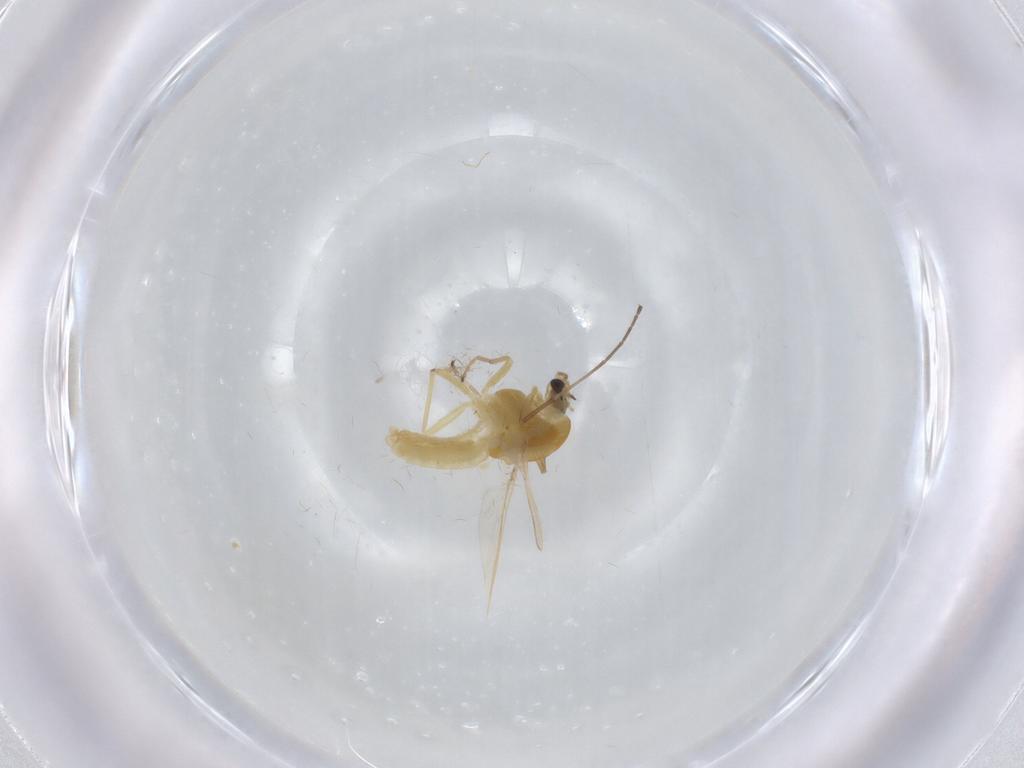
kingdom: Animalia
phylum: Arthropoda
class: Insecta
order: Diptera
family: Chironomidae
